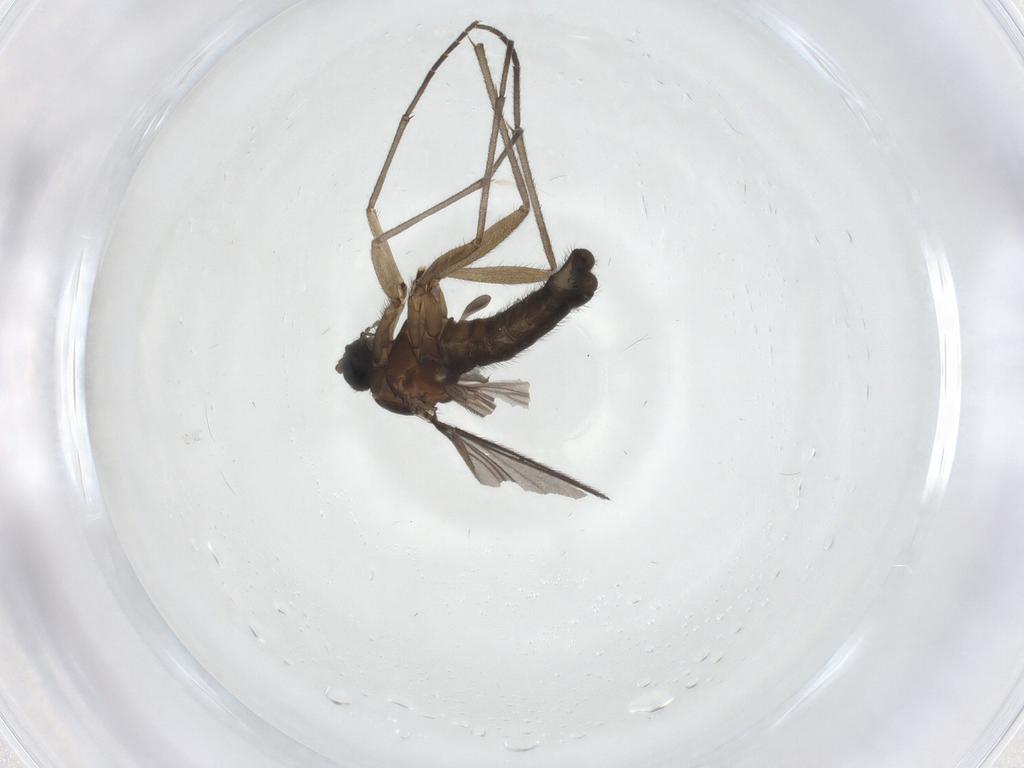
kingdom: Animalia
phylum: Arthropoda
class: Insecta
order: Diptera
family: Sciaridae
